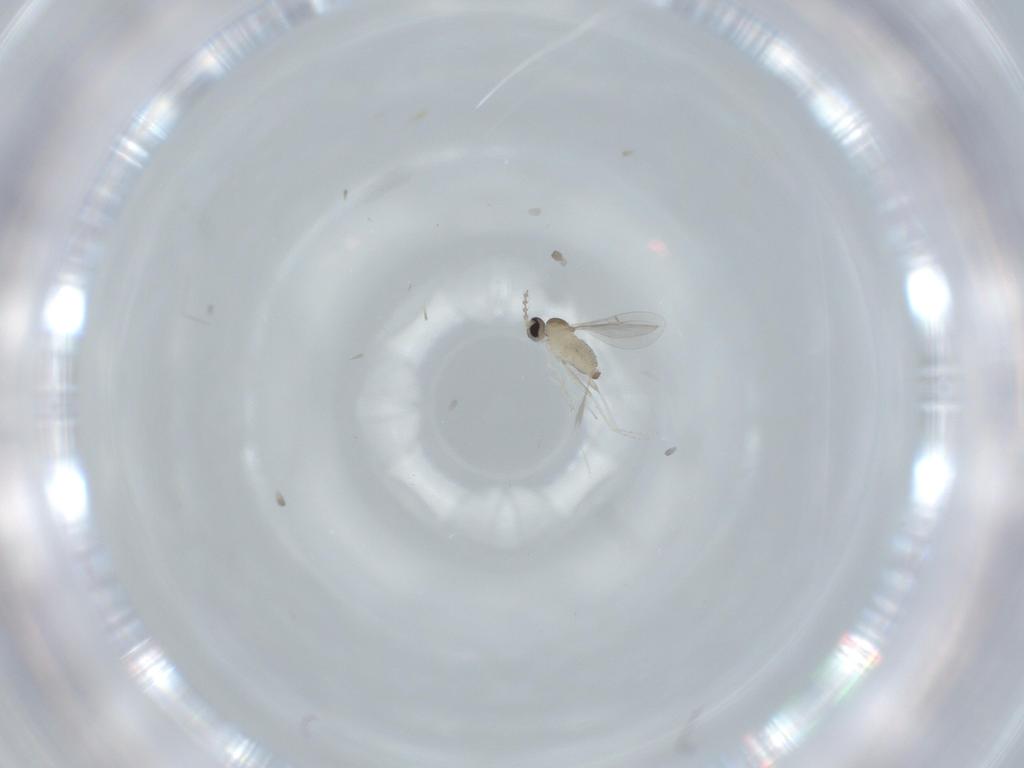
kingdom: Animalia
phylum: Arthropoda
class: Insecta
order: Diptera
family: Cecidomyiidae
